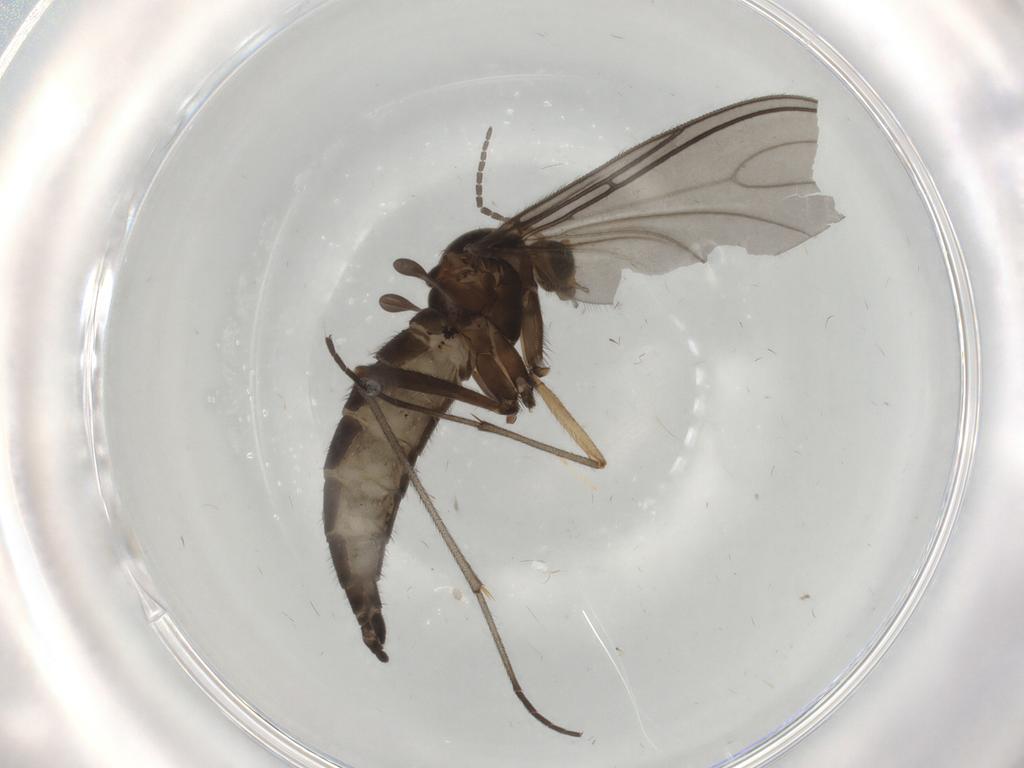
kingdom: Animalia
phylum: Arthropoda
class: Insecta
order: Diptera
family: Sciaridae
